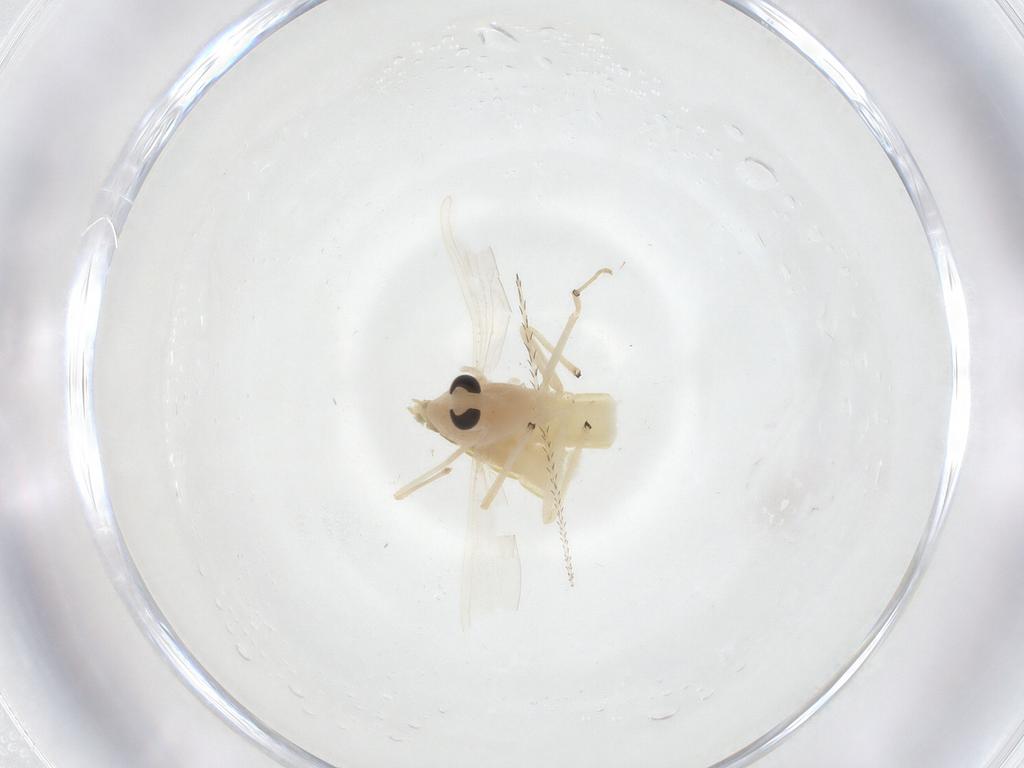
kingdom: Animalia
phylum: Arthropoda
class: Insecta
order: Diptera
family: Chironomidae
